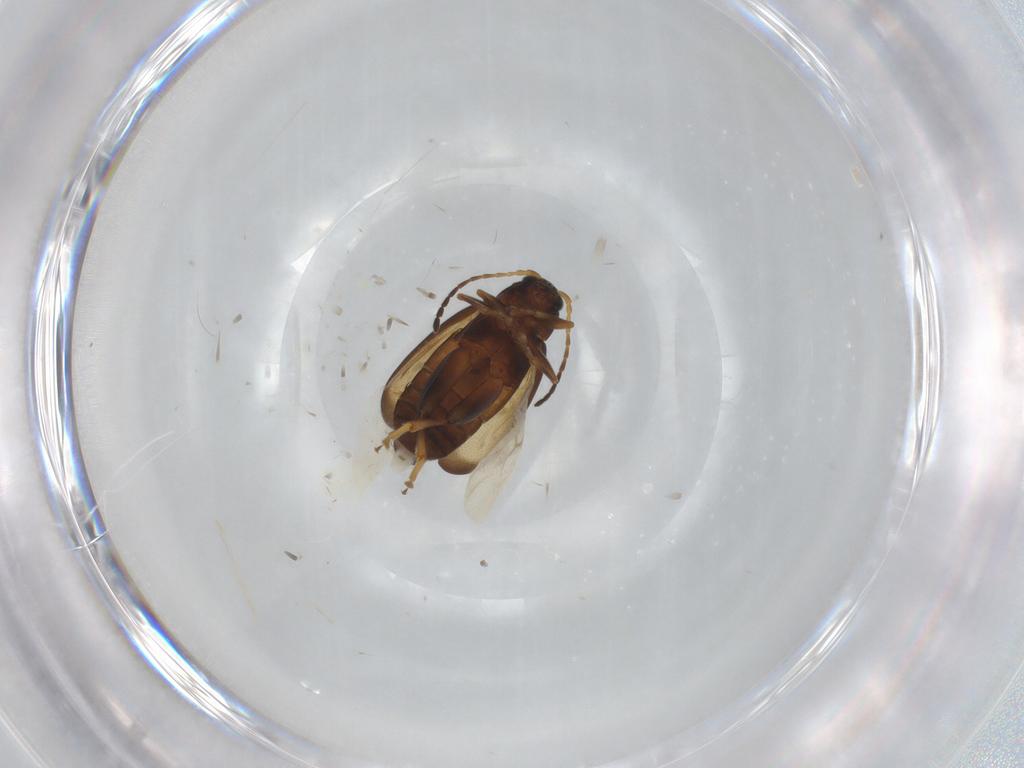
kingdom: Animalia
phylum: Arthropoda
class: Insecta
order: Coleoptera
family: Chrysomelidae
